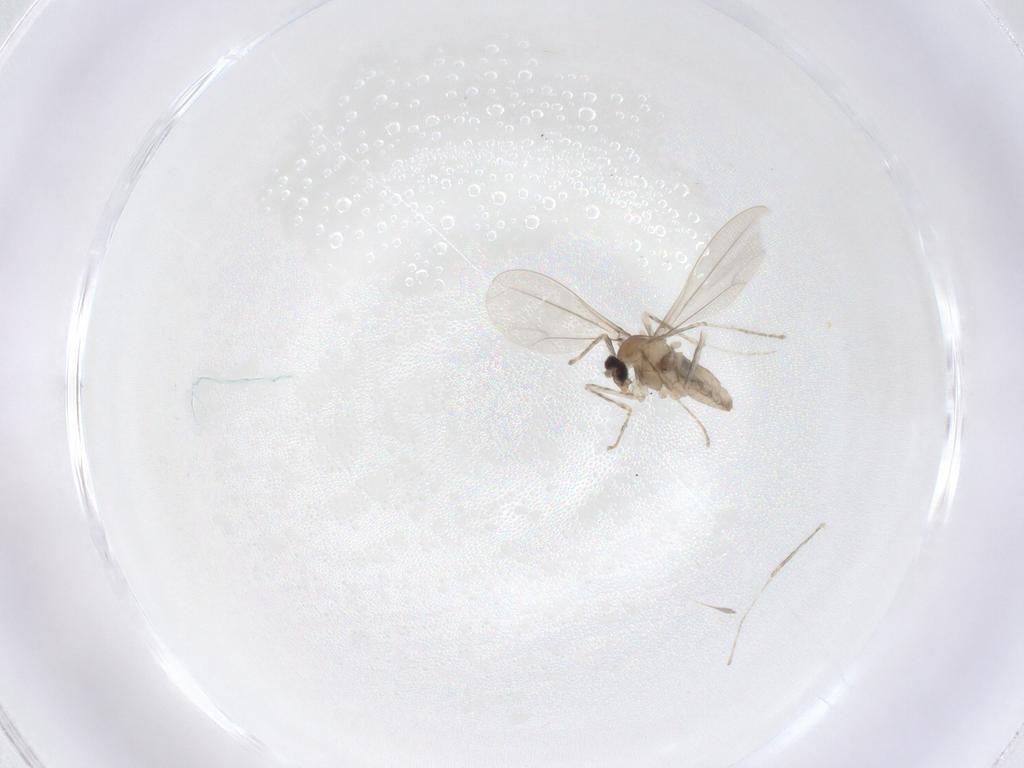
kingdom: Animalia
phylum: Arthropoda
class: Insecta
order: Diptera
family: Cecidomyiidae
